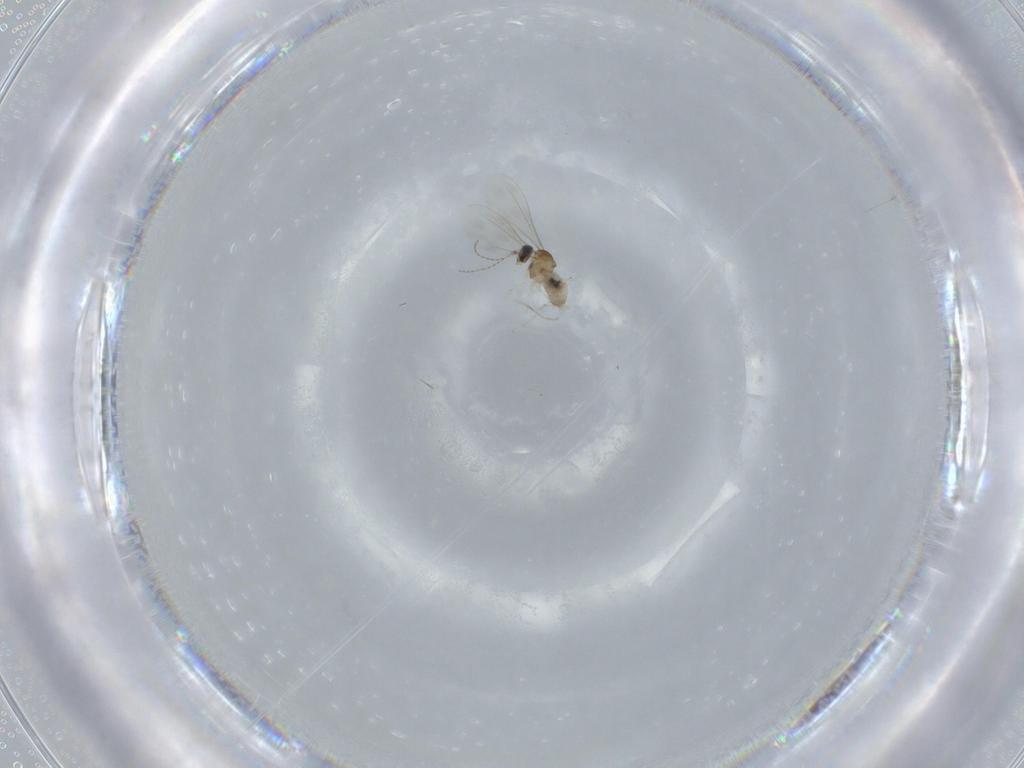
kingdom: Animalia
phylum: Arthropoda
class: Insecta
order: Diptera
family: Cecidomyiidae
